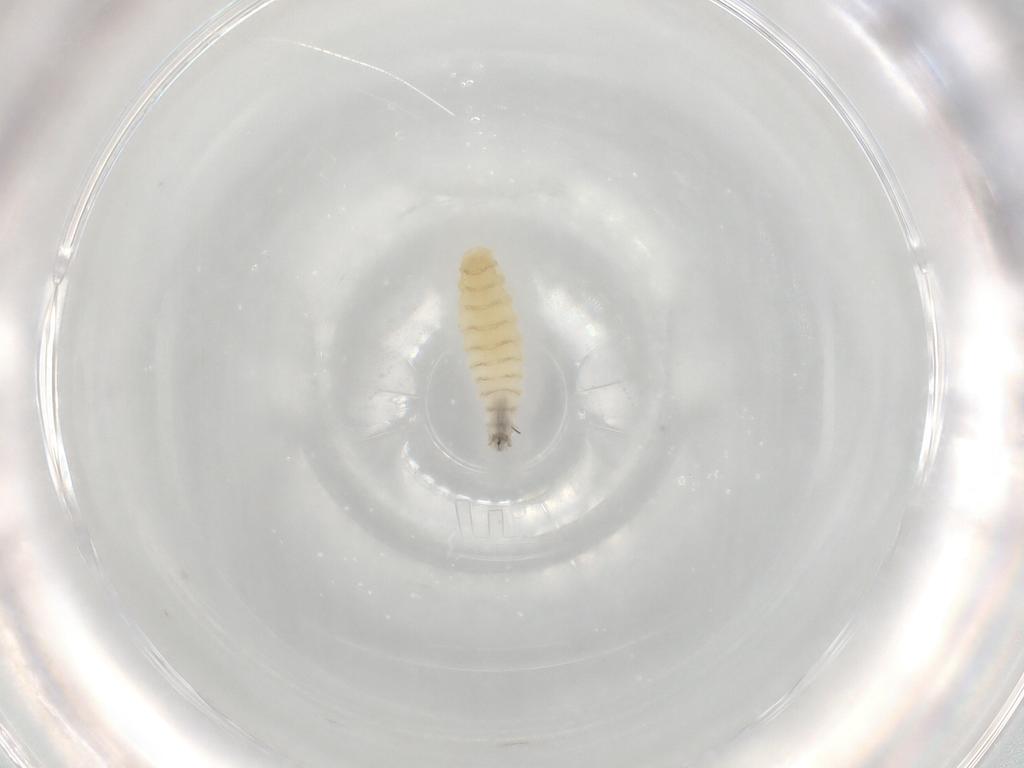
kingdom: Animalia
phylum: Arthropoda
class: Insecta
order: Diptera
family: Sarcophagidae
